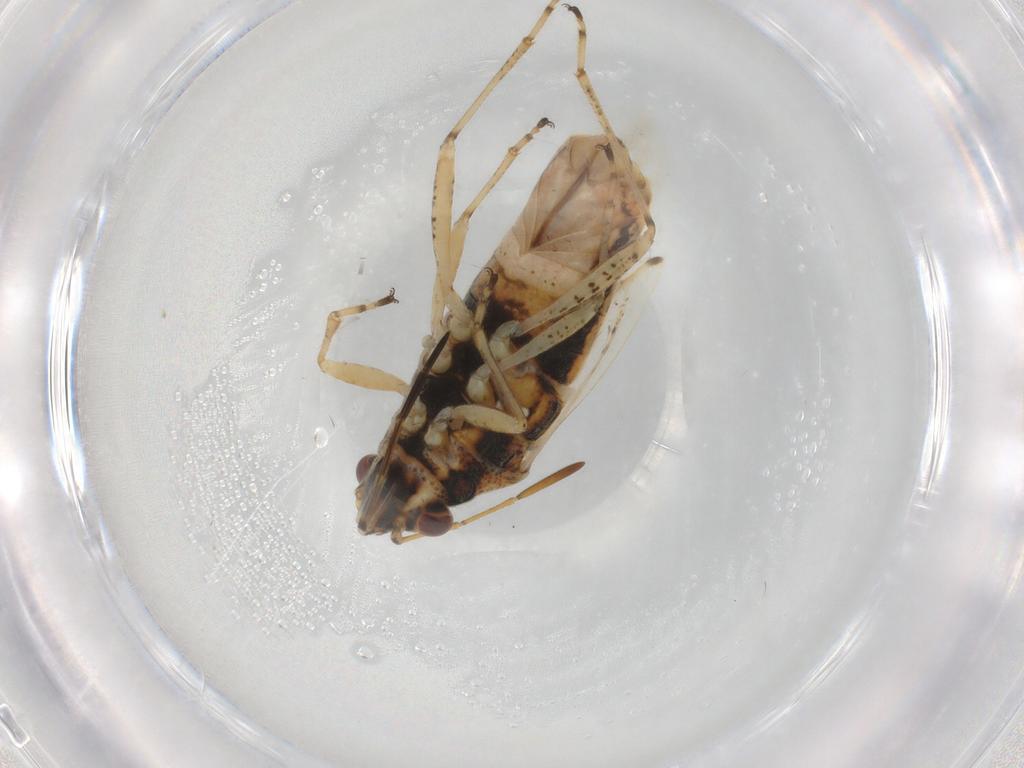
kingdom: Animalia
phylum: Arthropoda
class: Insecta
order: Hemiptera
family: Lygaeidae
